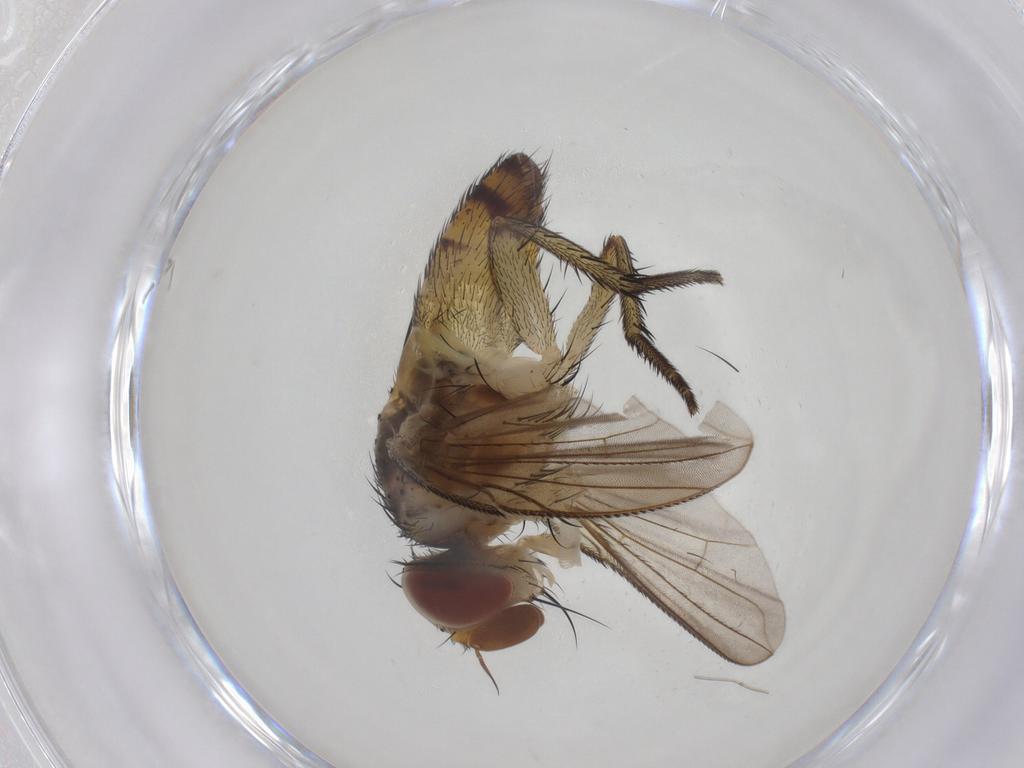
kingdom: Animalia
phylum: Arthropoda
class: Insecta
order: Diptera
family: Tachinidae
